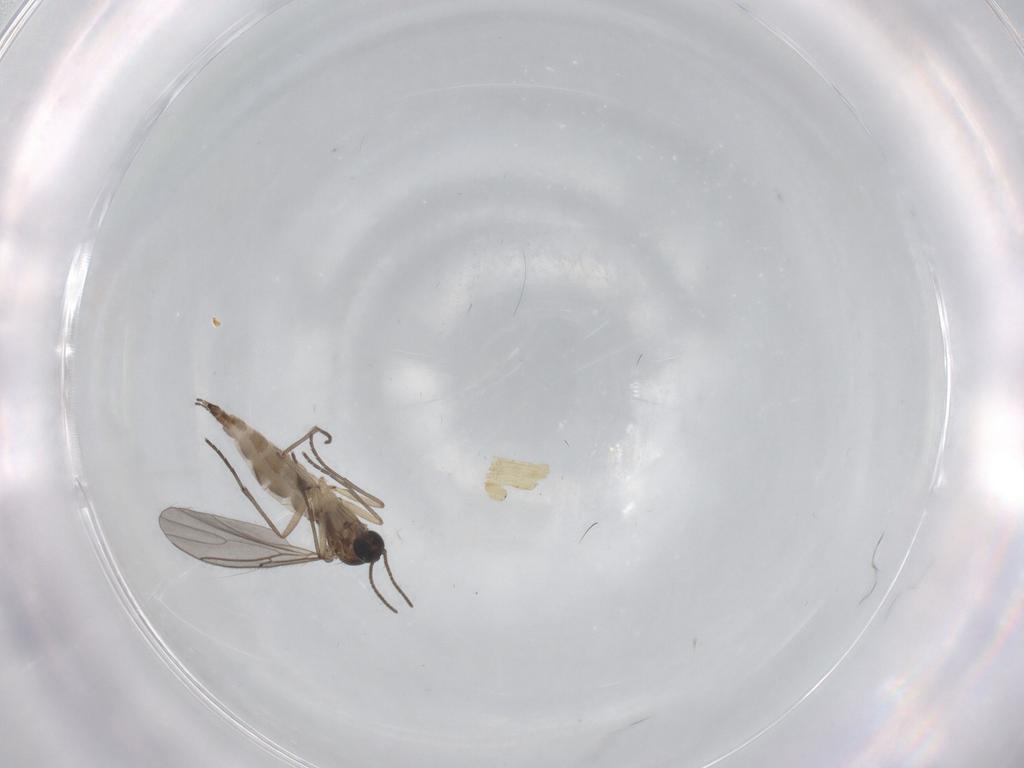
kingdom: Animalia
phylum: Arthropoda
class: Insecta
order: Diptera
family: Sciaridae
